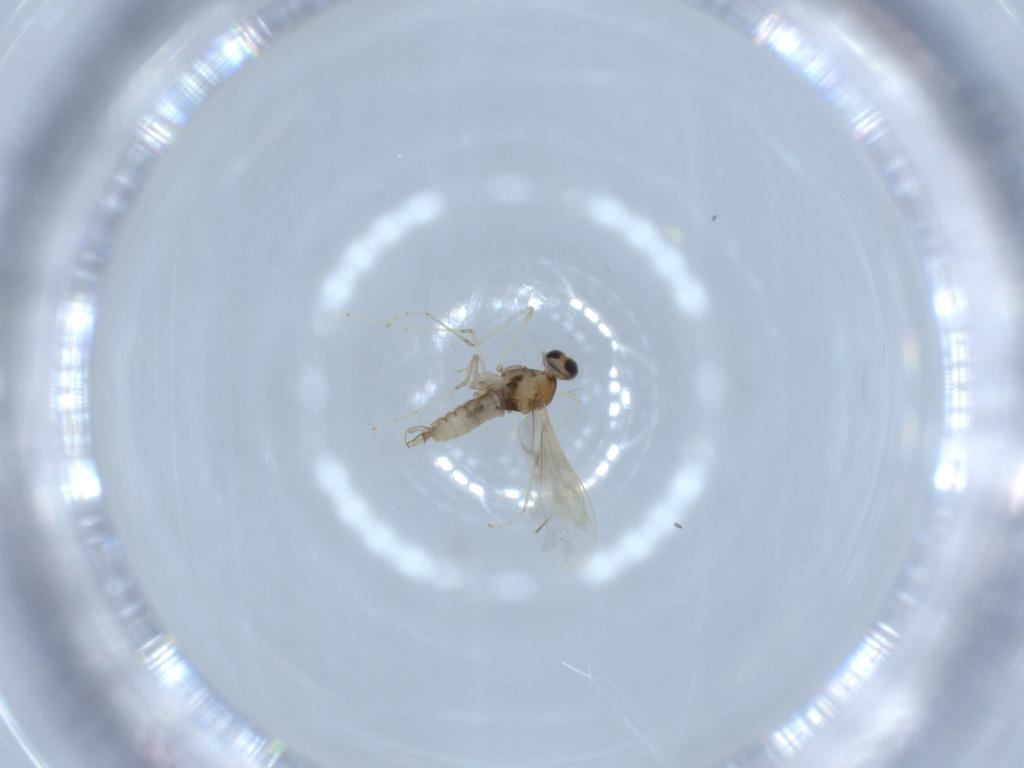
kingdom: Animalia
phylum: Arthropoda
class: Insecta
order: Diptera
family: Cecidomyiidae
